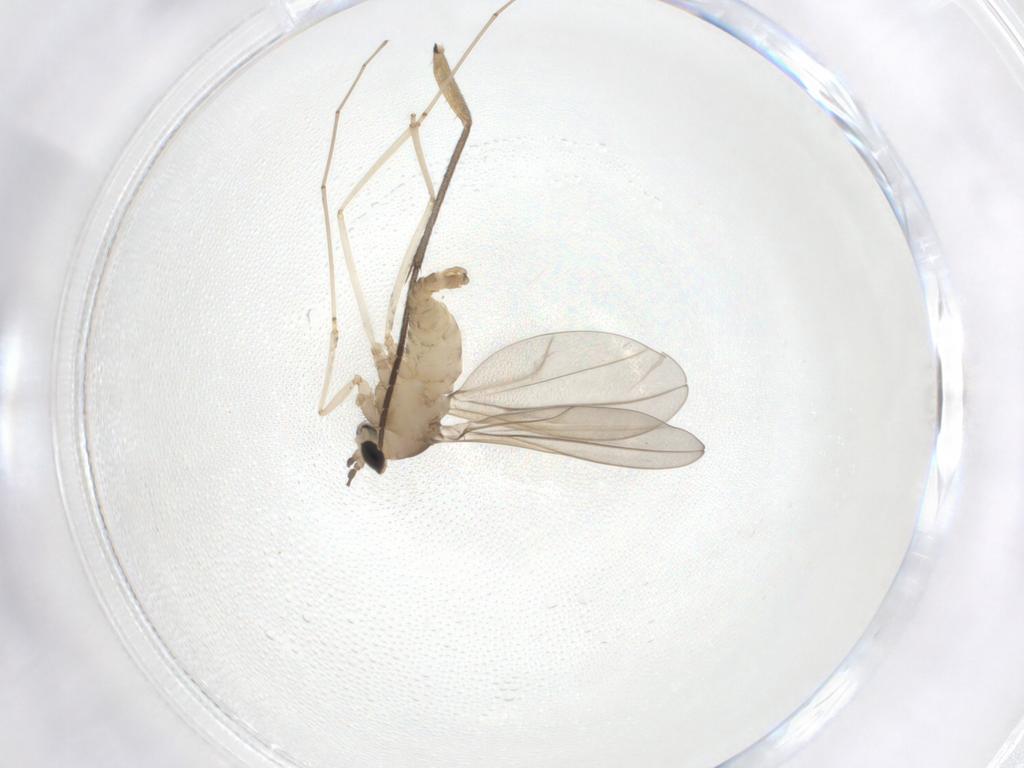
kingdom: Animalia
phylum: Arthropoda
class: Insecta
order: Diptera
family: Cecidomyiidae
